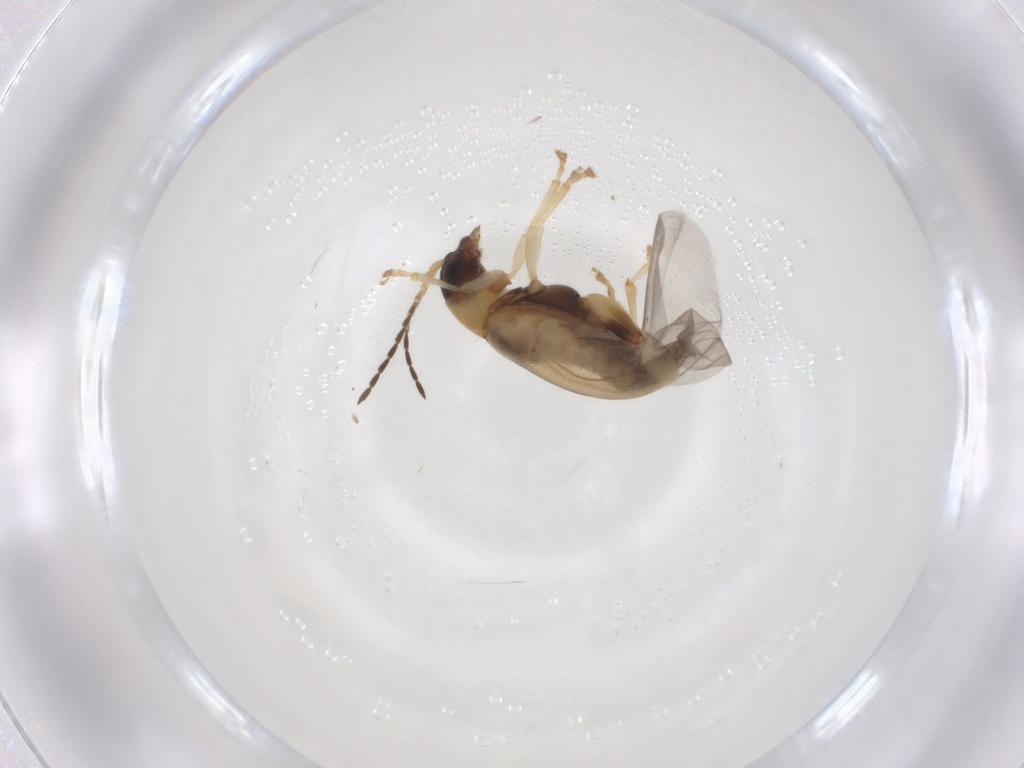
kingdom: Animalia
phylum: Arthropoda
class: Insecta
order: Coleoptera
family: Chrysomelidae
